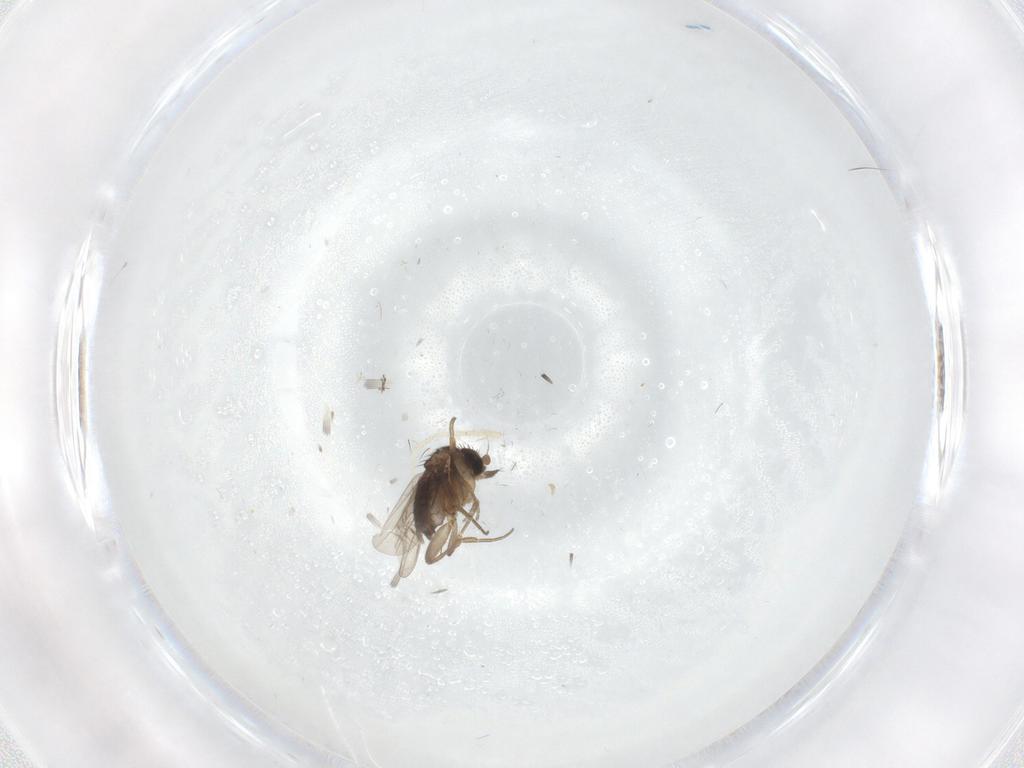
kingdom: Animalia
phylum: Arthropoda
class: Insecta
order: Diptera
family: Chironomidae
